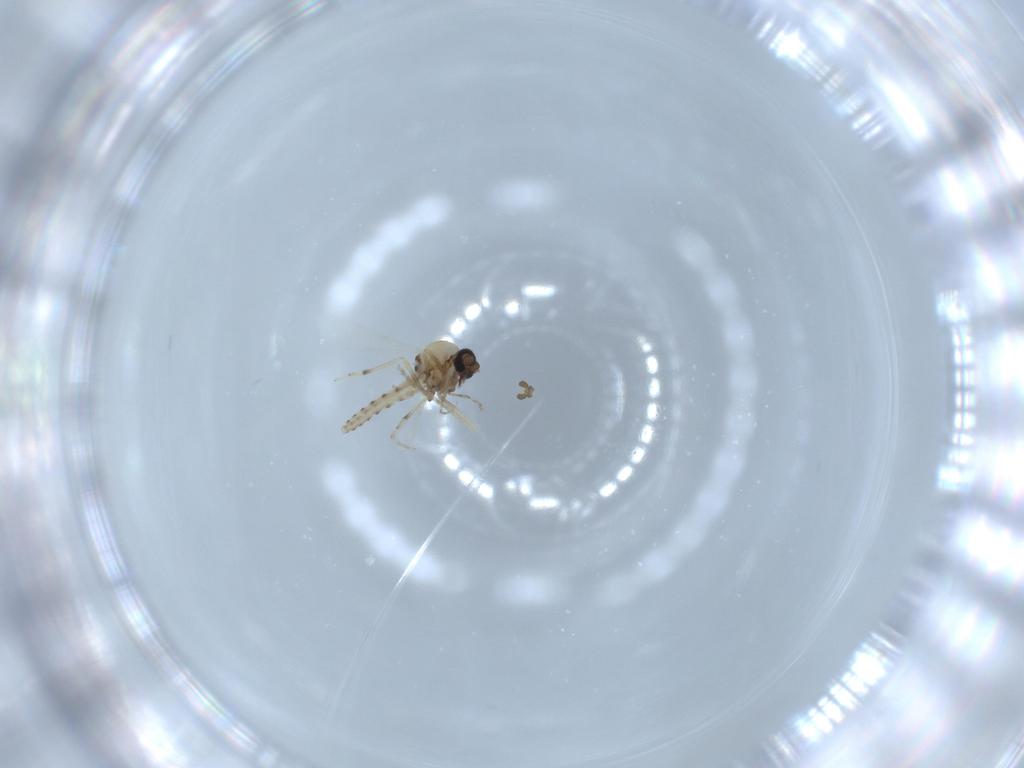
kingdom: Animalia
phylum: Arthropoda
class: Insecta
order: Diptera
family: Ceratopogonidae
